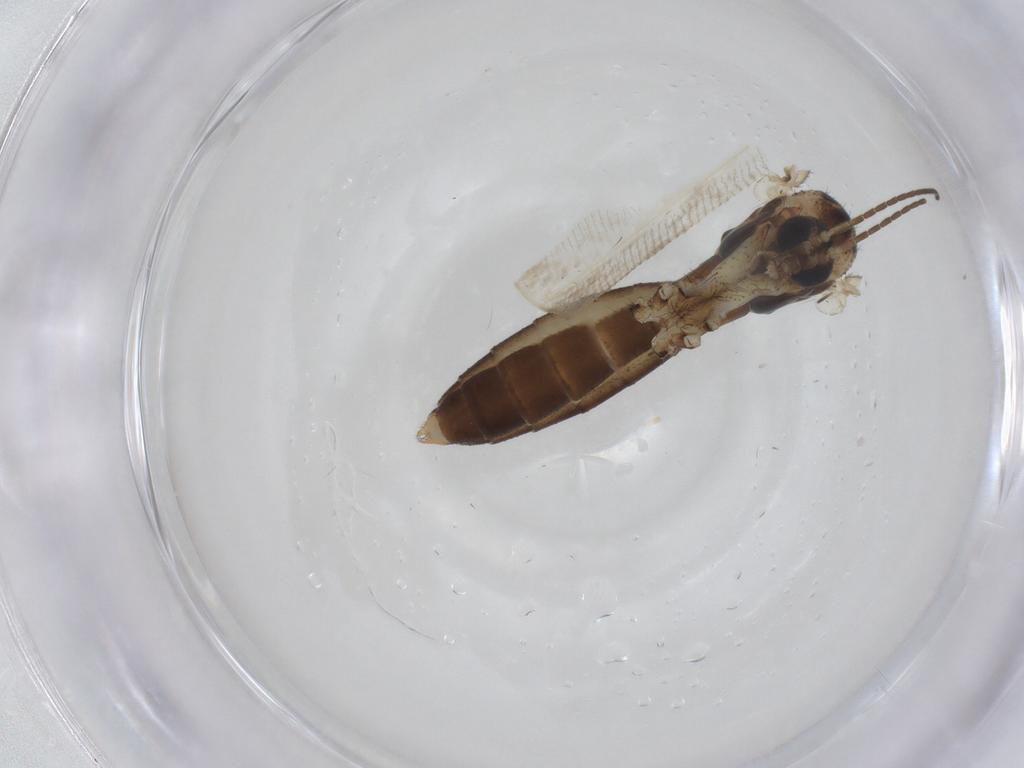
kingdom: Animalia
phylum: Arthropoda
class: Insecta
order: Diptera
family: Mycetophilidae
